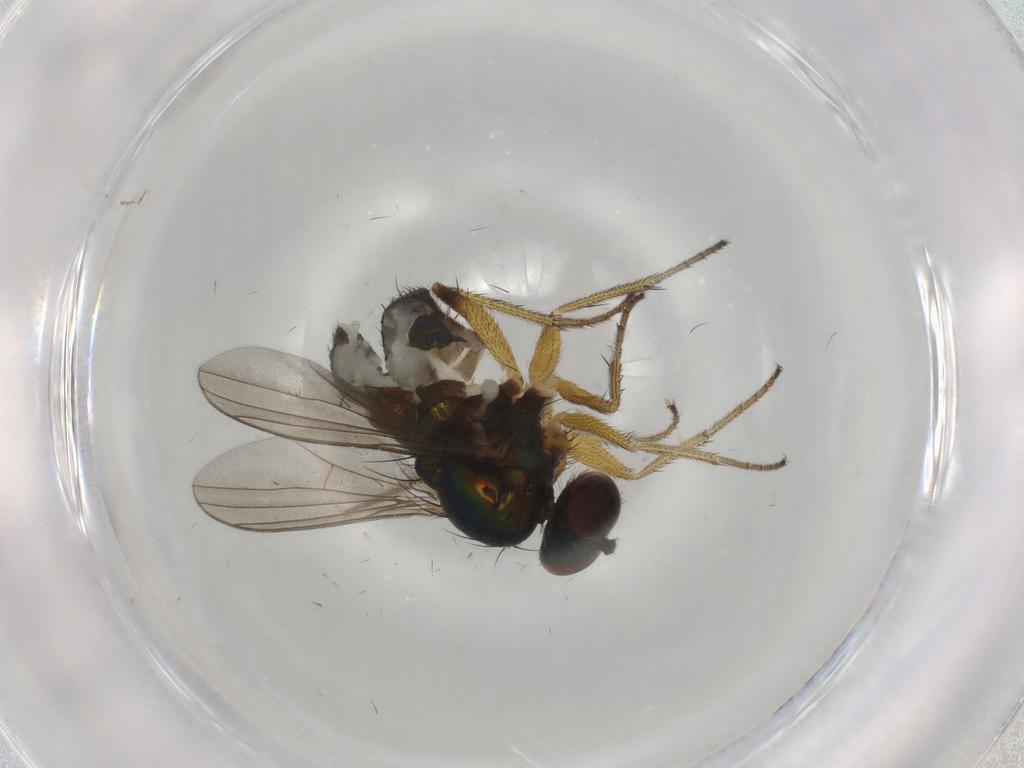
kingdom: Animalia
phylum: Arthropoda
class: Insecta
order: Diptera
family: Dolichopodidae
